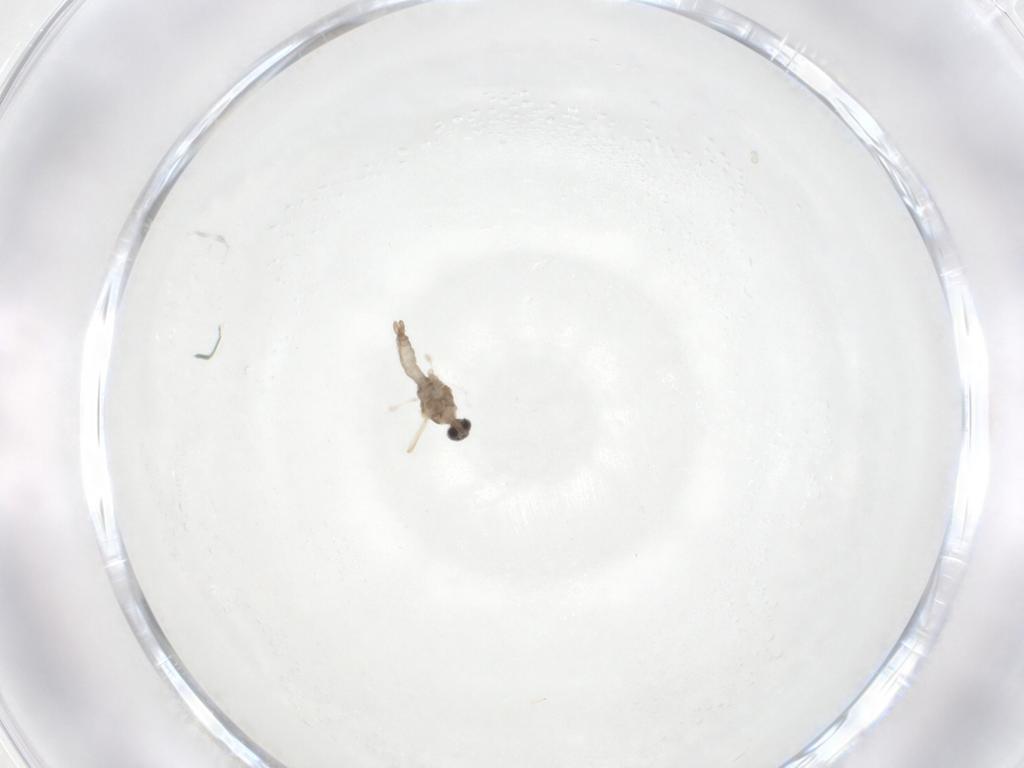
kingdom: Animalia
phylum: Arthropoda
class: Insecta
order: Diptera
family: Cecidomyiidae
